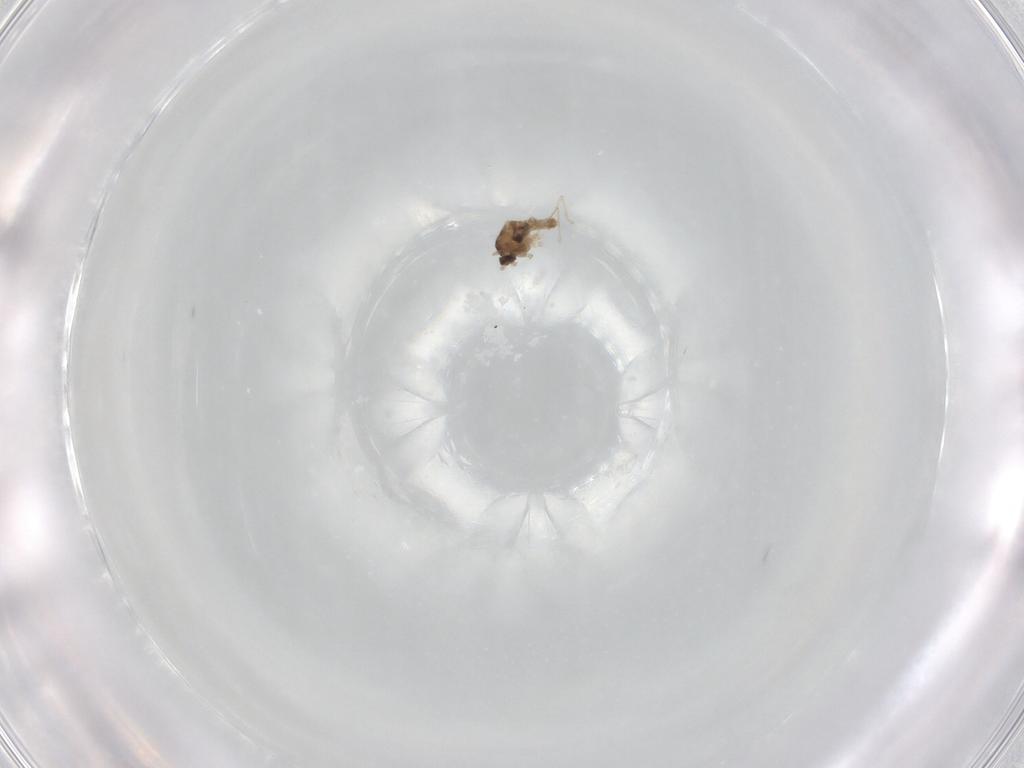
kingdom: Animalia
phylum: Arthropoda
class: Insecta
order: Diptera
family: Cecidomyiidae
